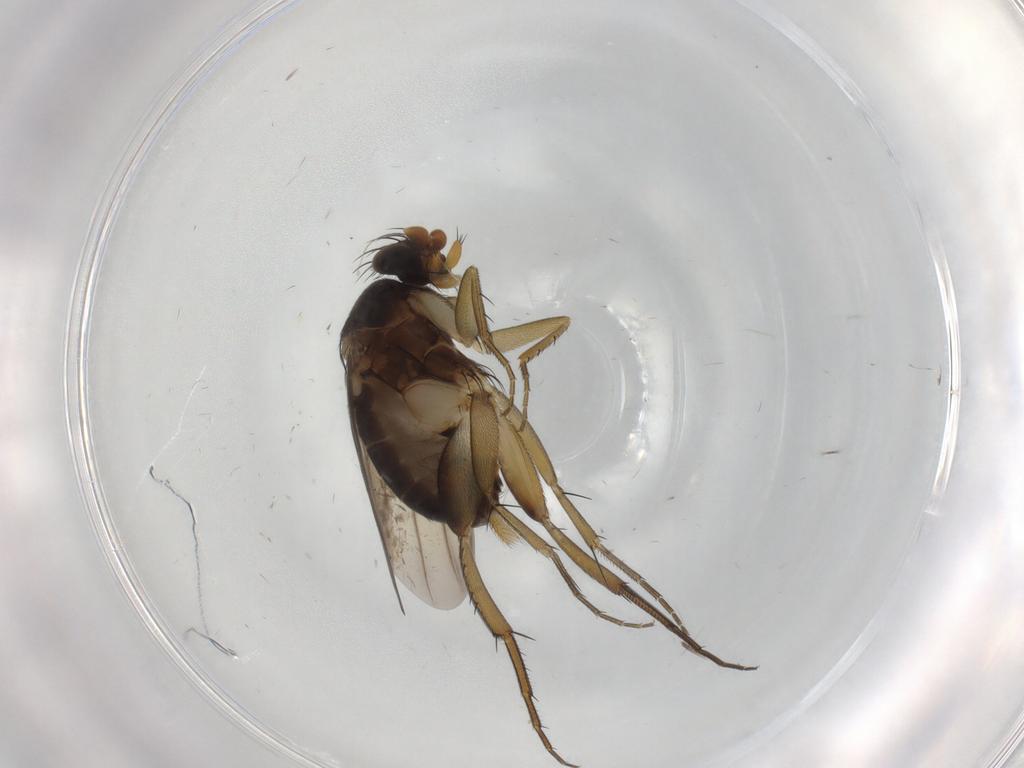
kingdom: Animalia
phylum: Arthropoda
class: Insecta
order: Diptera
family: Phoridae
